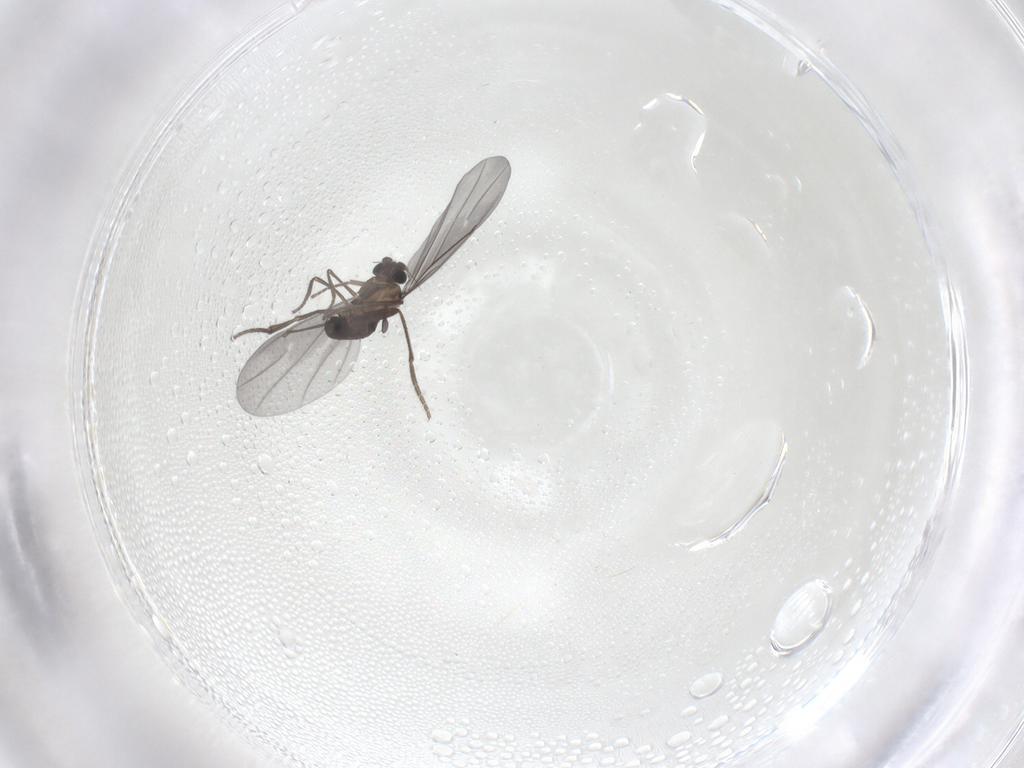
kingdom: Animalia
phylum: Arthropoda
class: Insecta
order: Diptera
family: Phoridae
